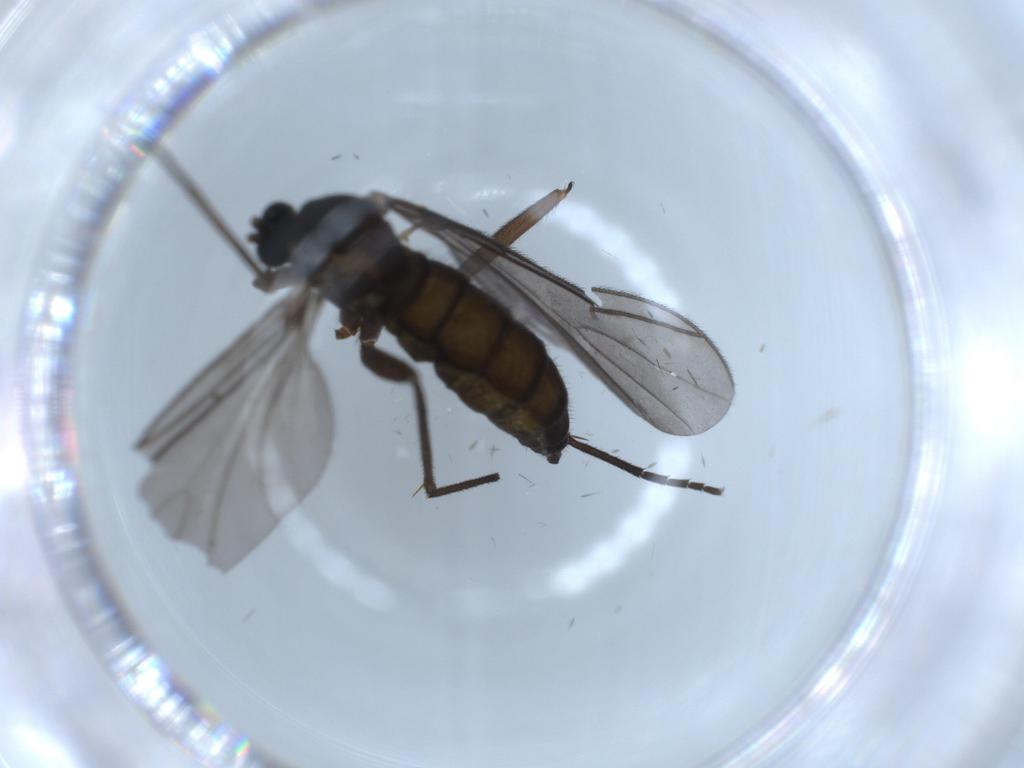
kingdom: Animalia
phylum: Arthropoda
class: Insecta
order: Diptera
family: Sciaridae
